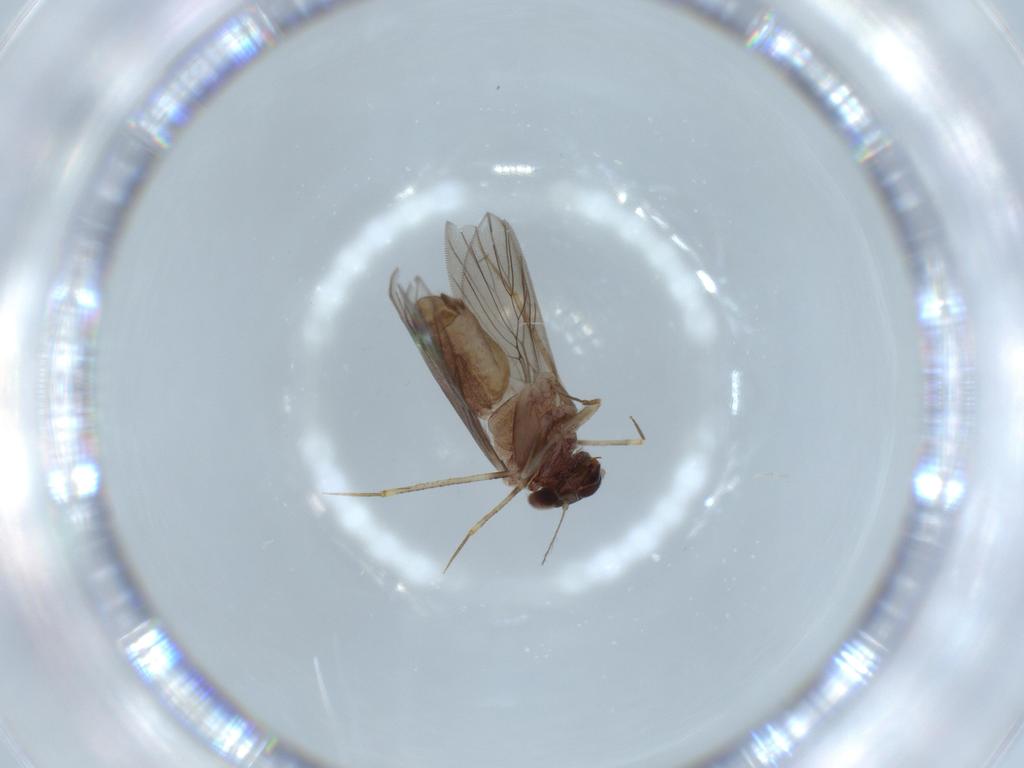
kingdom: Animalia
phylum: Arthropoda
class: Insecta
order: Psocodea
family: Lepidopsocidae
